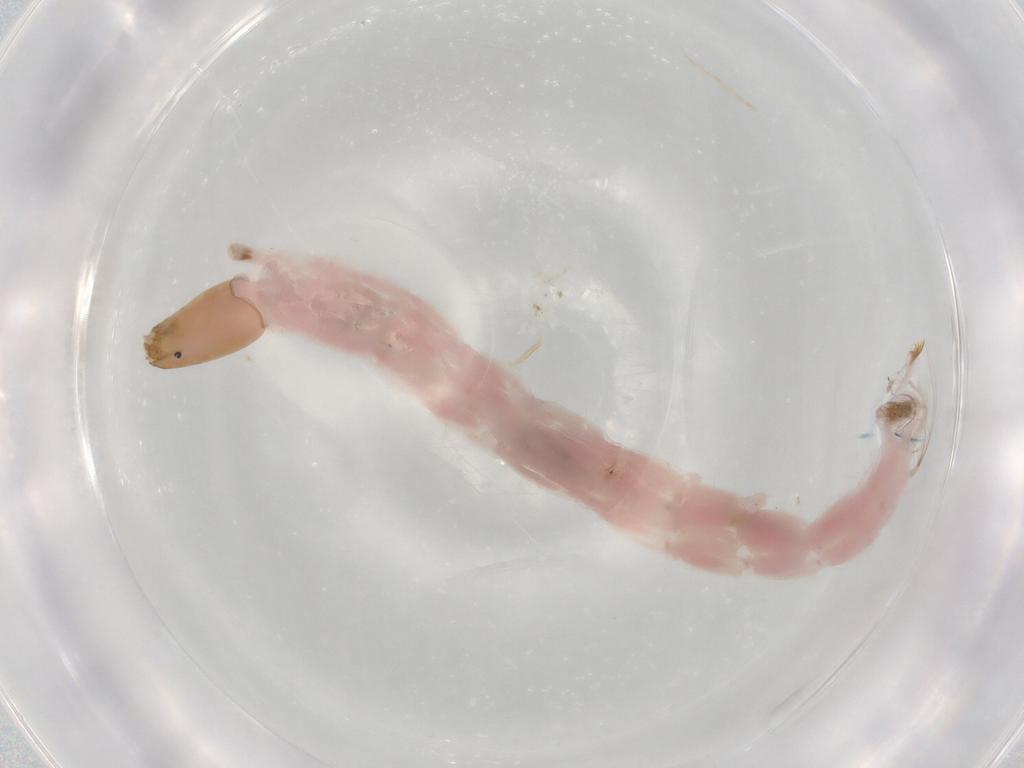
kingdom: Animalia
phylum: Arthropoda
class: Insecta
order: Diptera
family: Chironomidae
